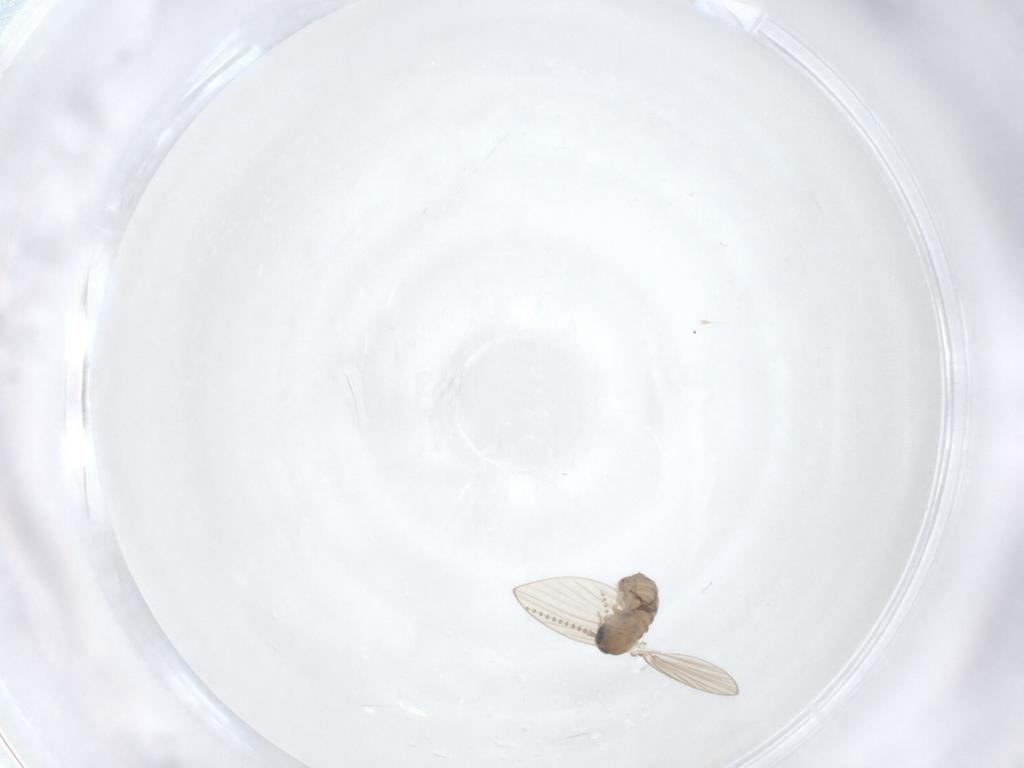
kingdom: Animalia
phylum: Arthropoda
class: Insecta
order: Diptera
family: Psychodidae
